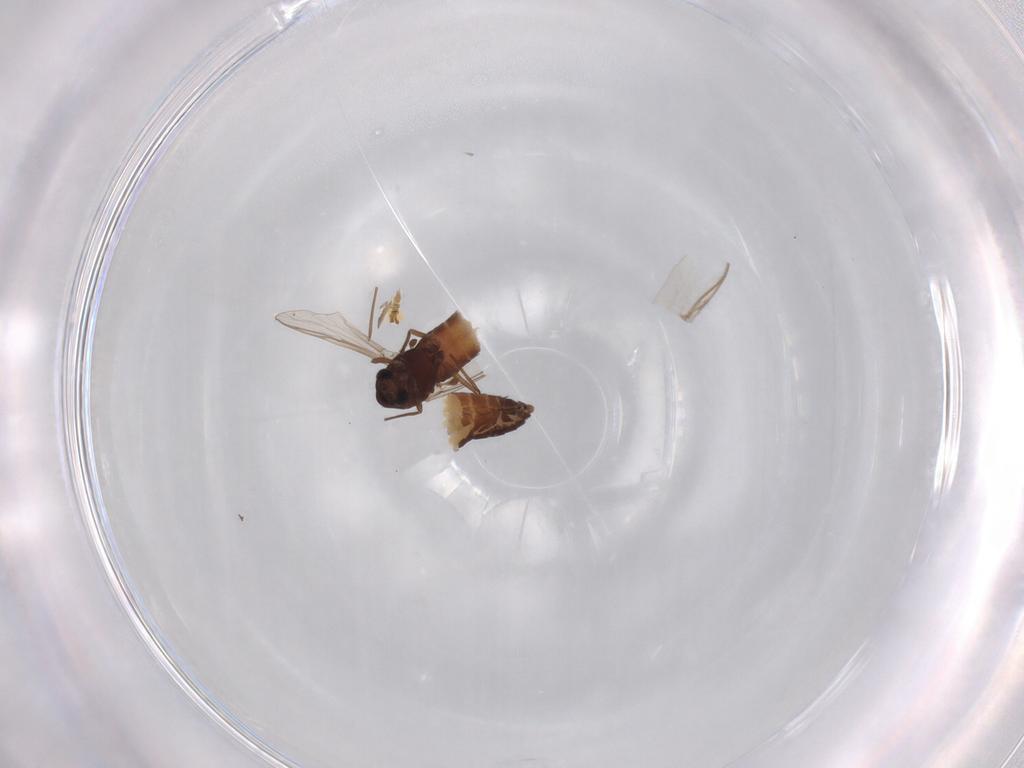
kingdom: Animalia
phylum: Arthropoda
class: Insecta
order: Diptera
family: Chironomidae
